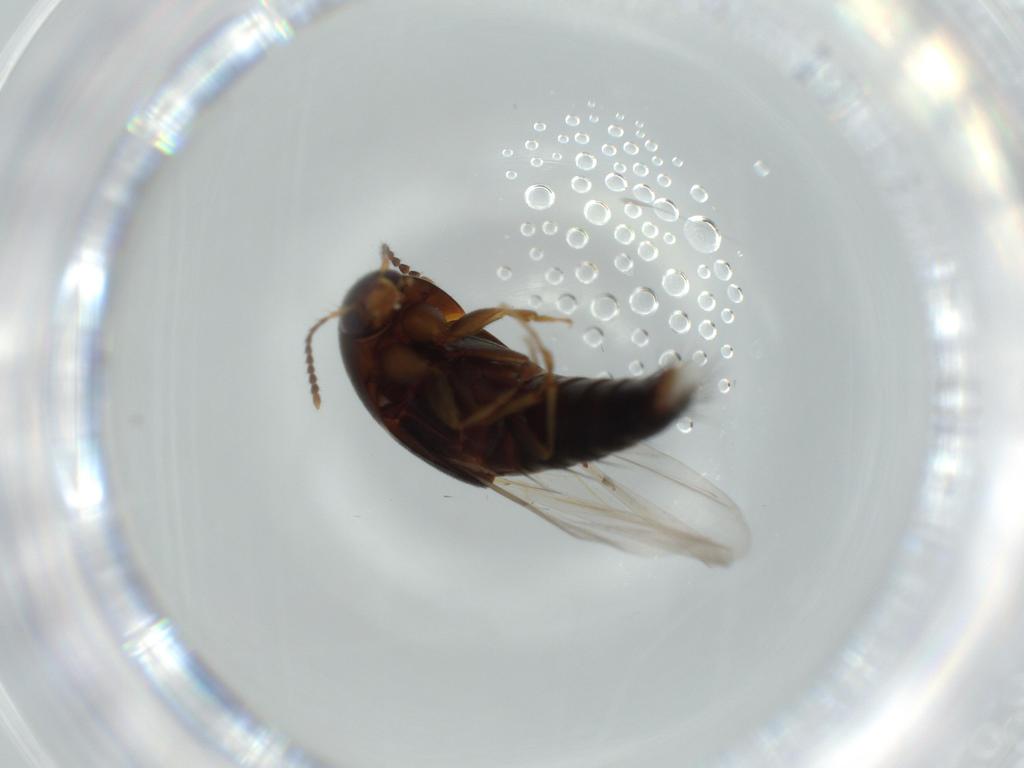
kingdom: Animalia
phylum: Arthropoda
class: Insecta
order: Coleoptera
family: Staphylinidae
